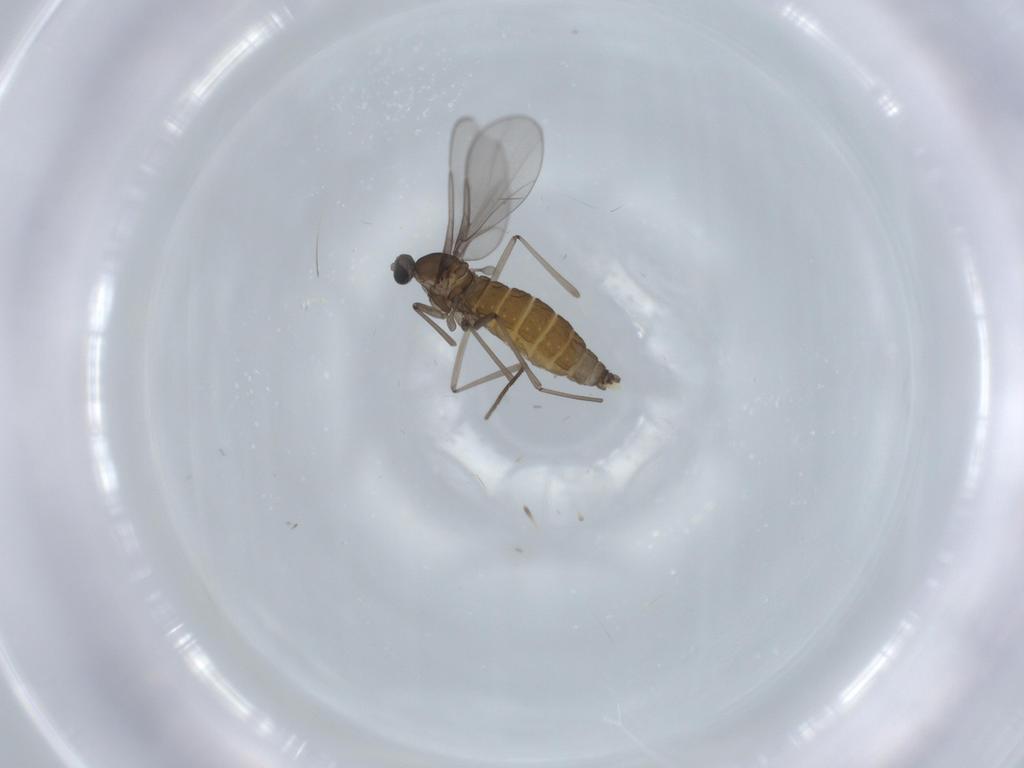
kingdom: Animalia
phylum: Arthropoda
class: Insecta
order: Diptera
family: Cecidomyiidae
